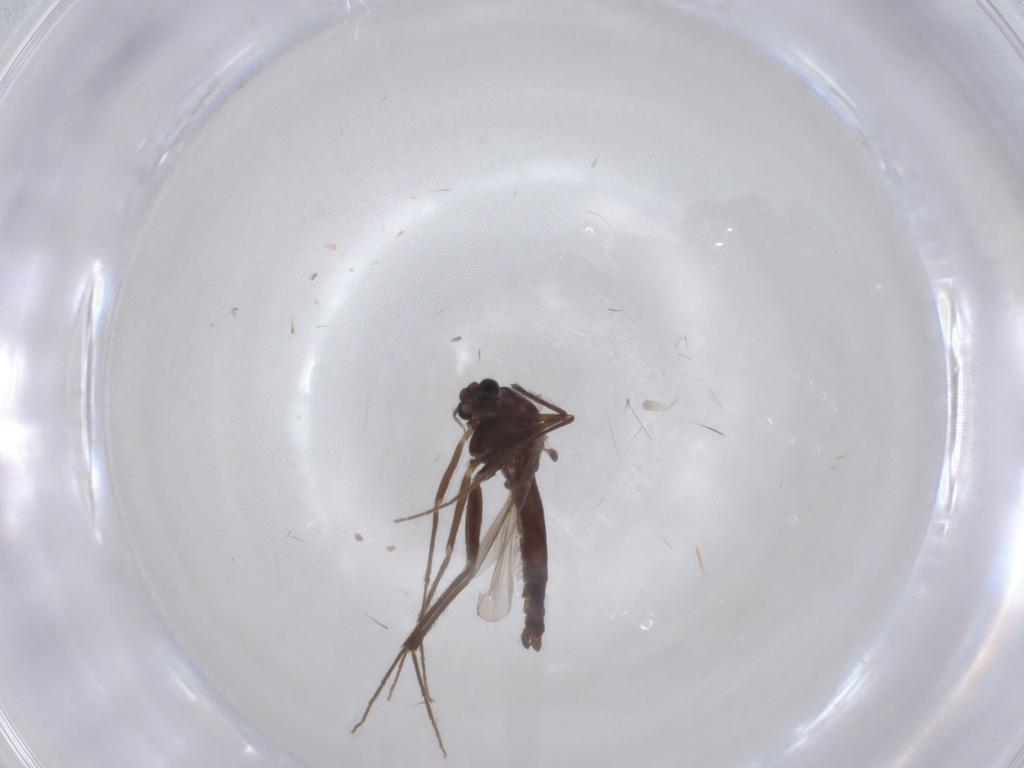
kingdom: Animalia
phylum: Arthropoda
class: Insecta
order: Diptera
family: Chironomidae
